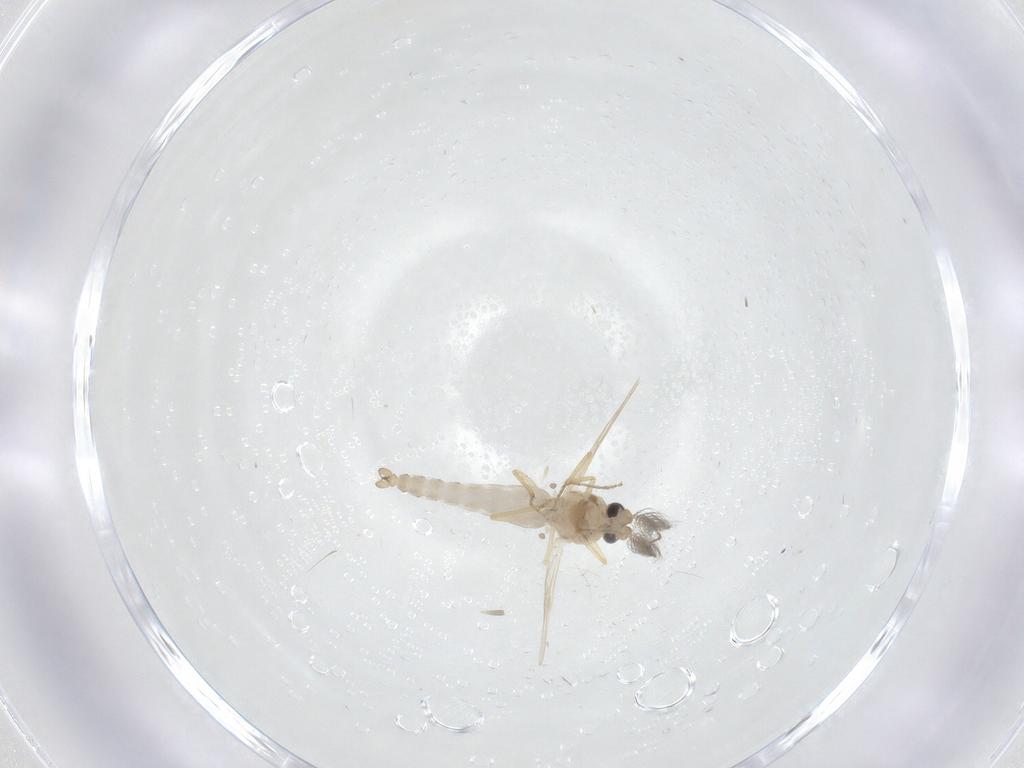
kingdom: Animalia
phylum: Arthropoda
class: Insecta
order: Diptera
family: Ceratopogonidae
